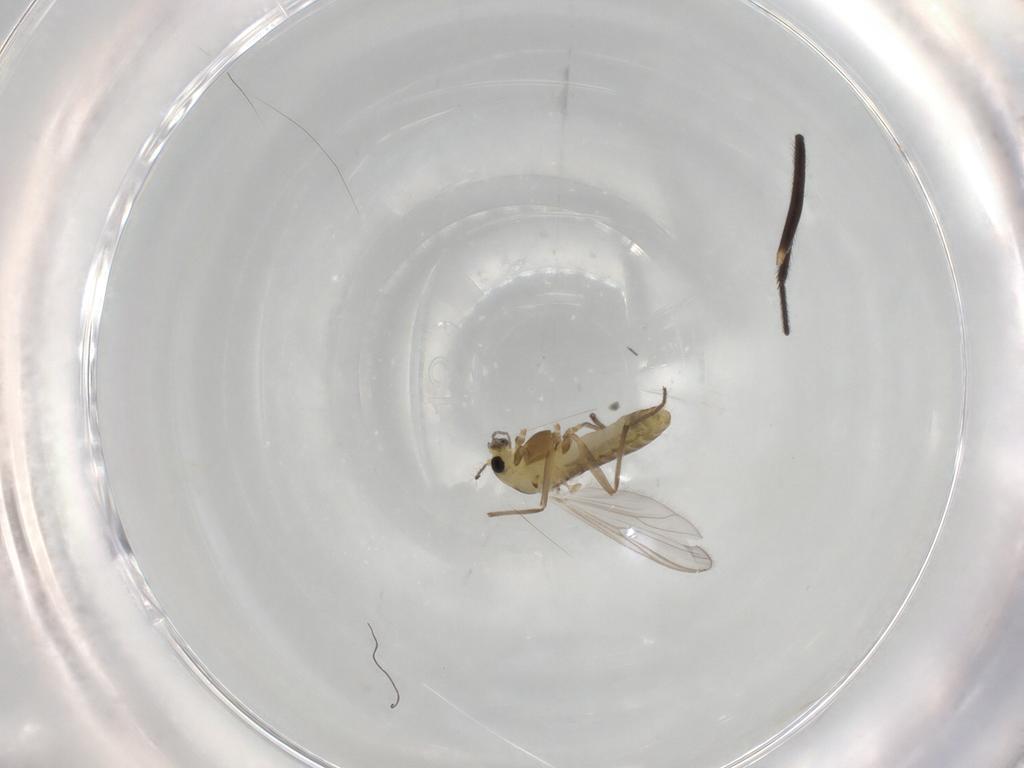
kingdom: Animalia
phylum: Arthropoda
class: Insecta
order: Diptera
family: Chironomidae
